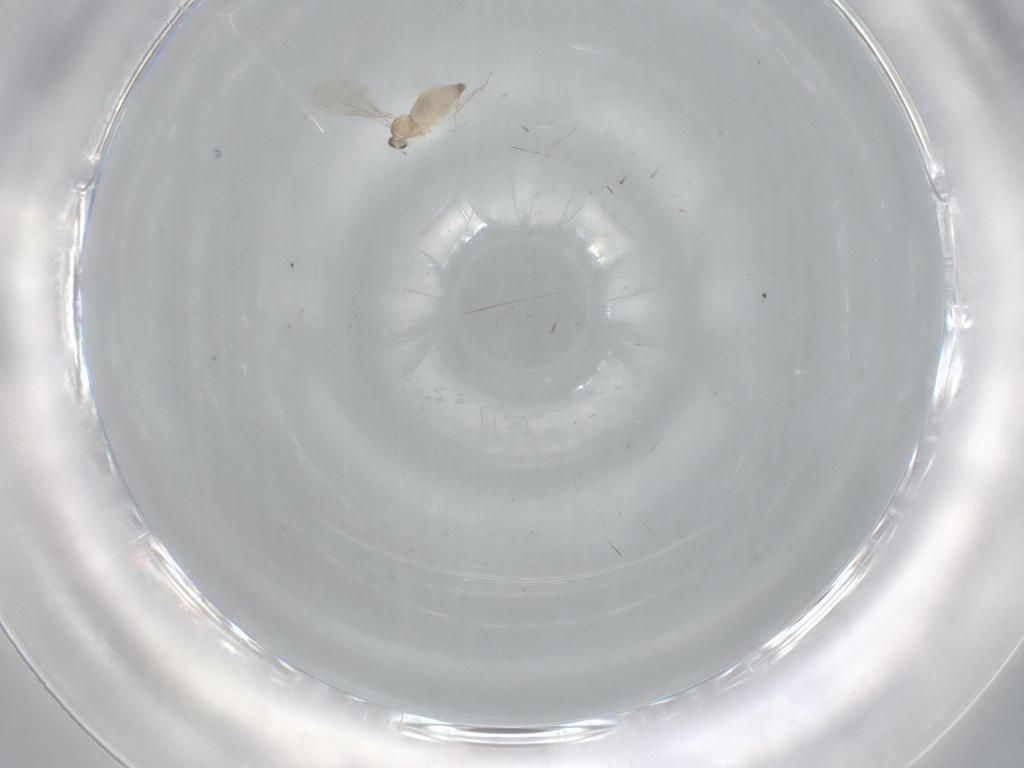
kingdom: Animalia
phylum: Arthropoda
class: Insecta
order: Diptera
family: Cecidomyiidae
